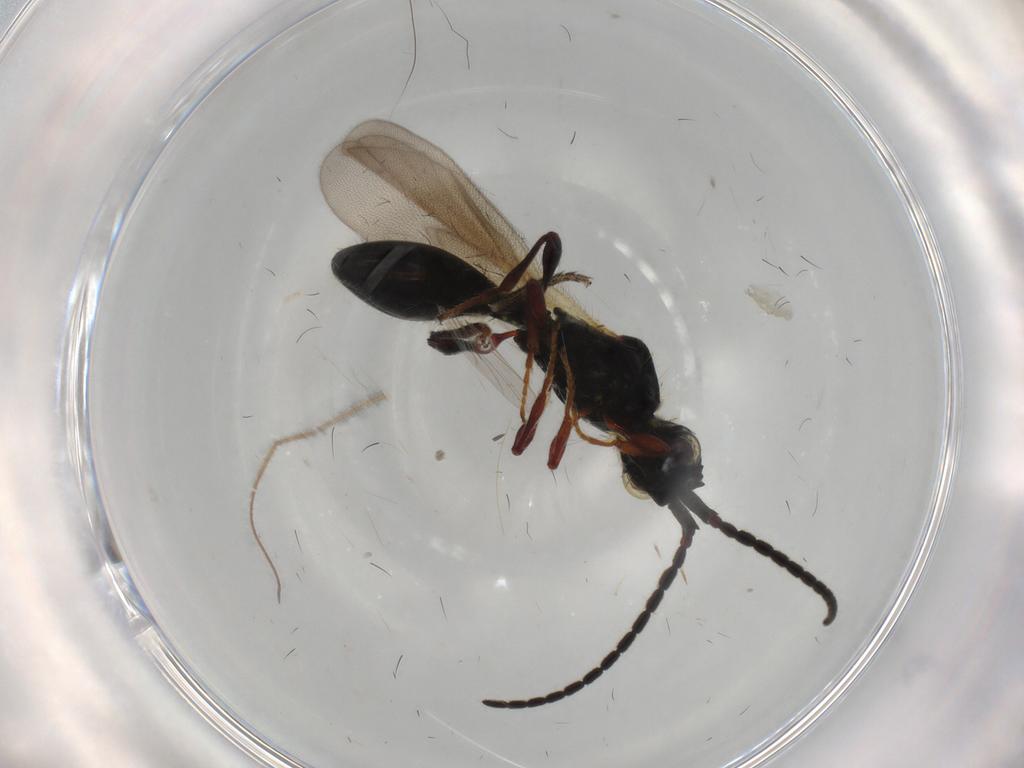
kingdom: Animalia
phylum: Arthropoda
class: Insecta
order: Hymenoptera
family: Diapriidae
